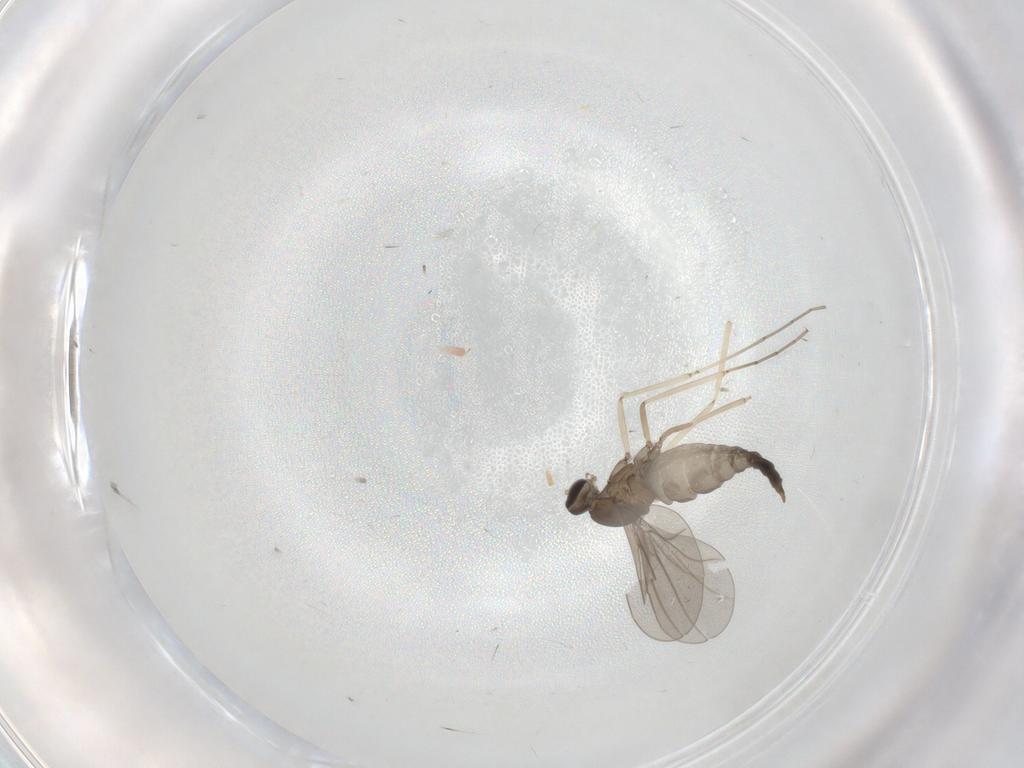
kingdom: Animalia
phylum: Arthropoda
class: Insecta
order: Diptera
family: Cecidomyiidae
